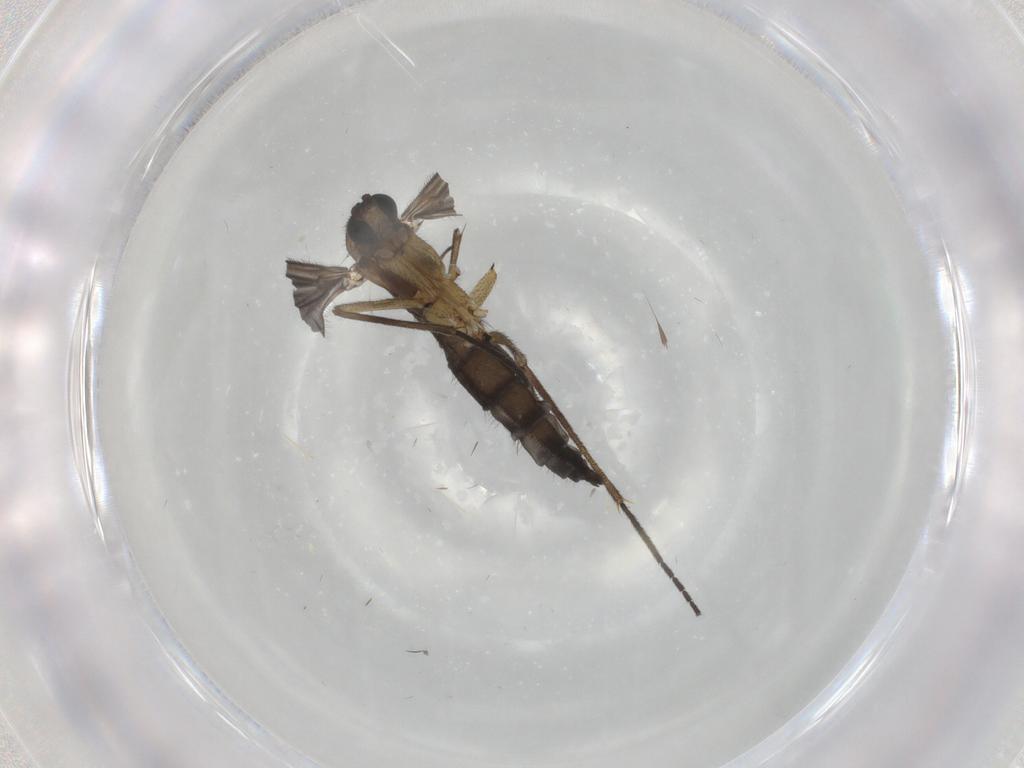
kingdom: Animalia
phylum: Arthropoda
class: Insecta
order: Diptera
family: Sciaridae
